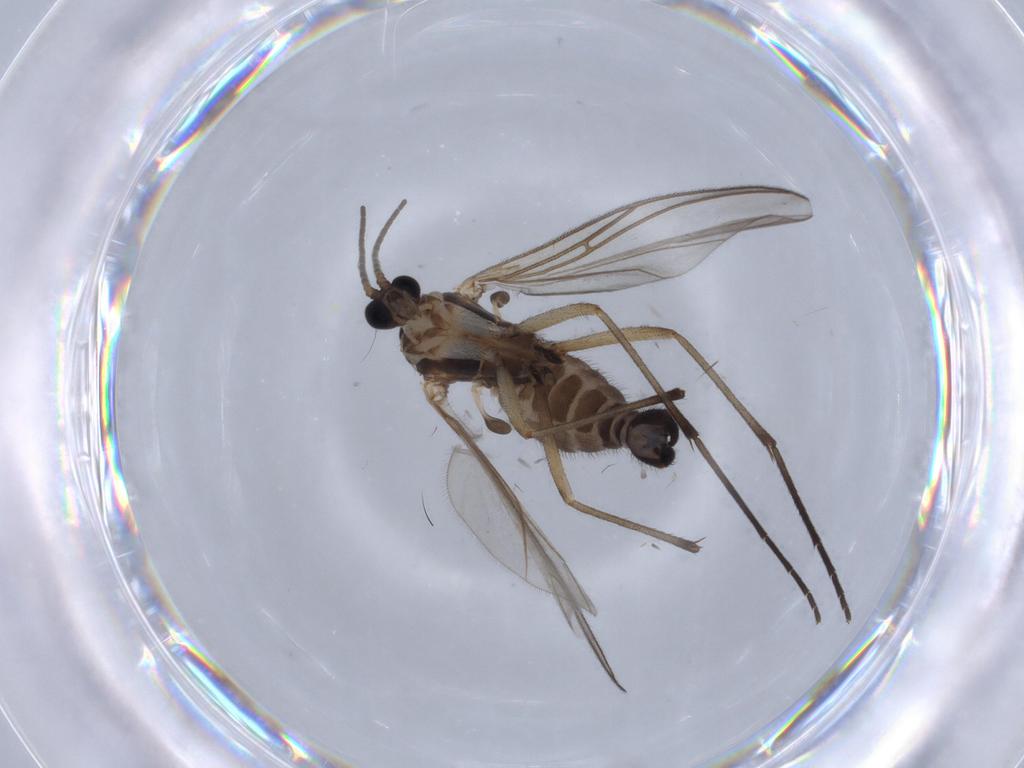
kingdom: Animalia
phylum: Arthropoda
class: Insecta
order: Diptera
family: Sciaridae
